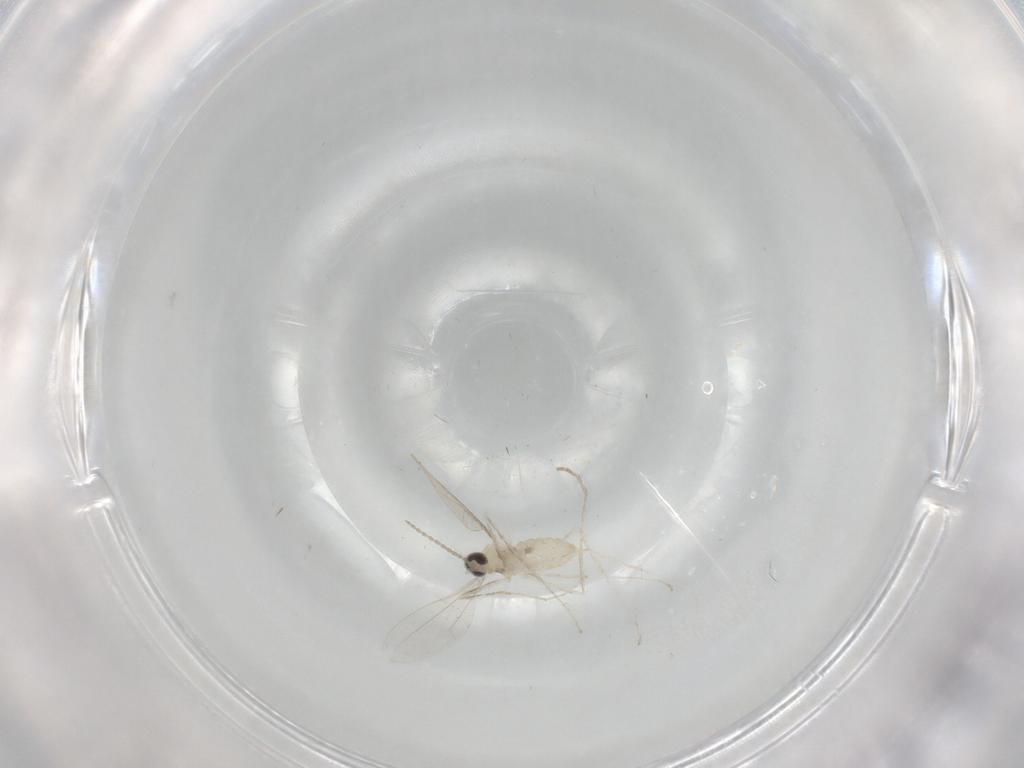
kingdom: Animalia
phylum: Arthropoda
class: Insecta
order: Diptera
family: Cecidomyiidae
